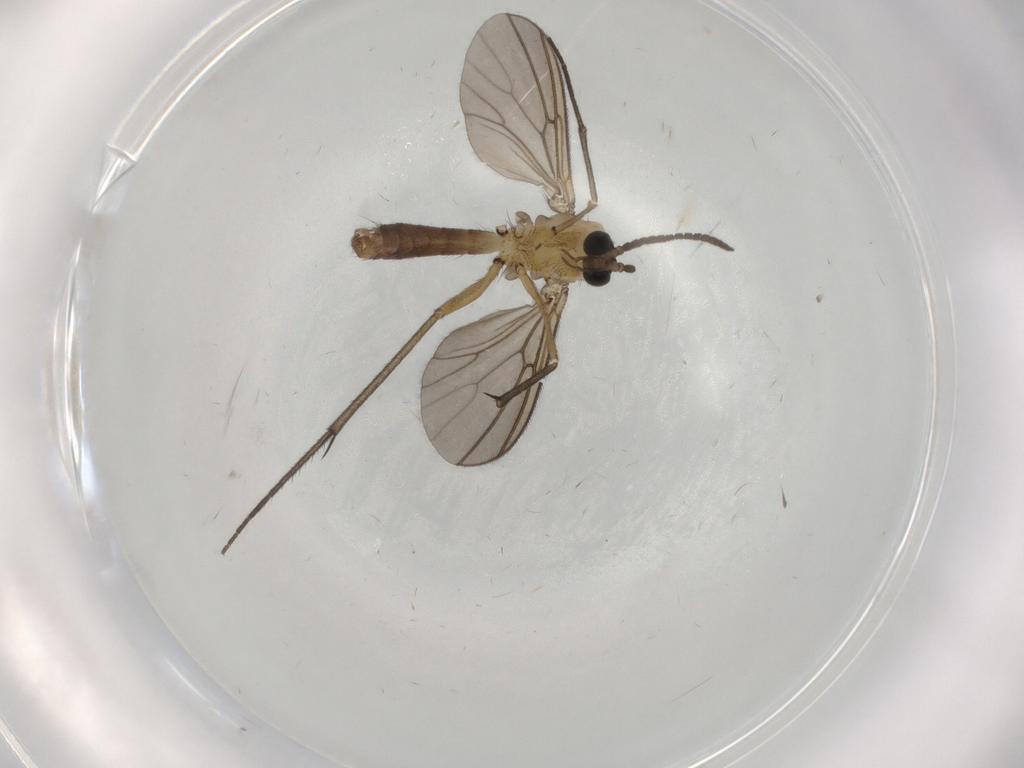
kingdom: Animalia
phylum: Arthropoda
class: Insecta
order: Diptera
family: Mycetophilidae
